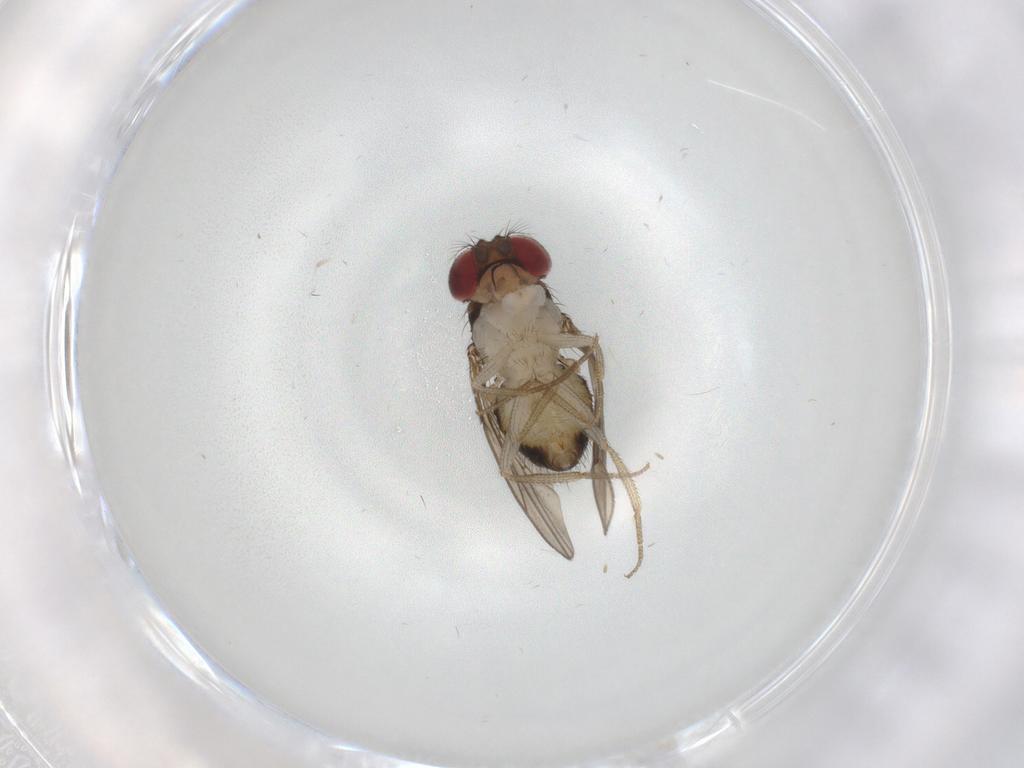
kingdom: Animalia
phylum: Arthropoda
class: Insecta
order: Diptera
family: Drosophilidae
